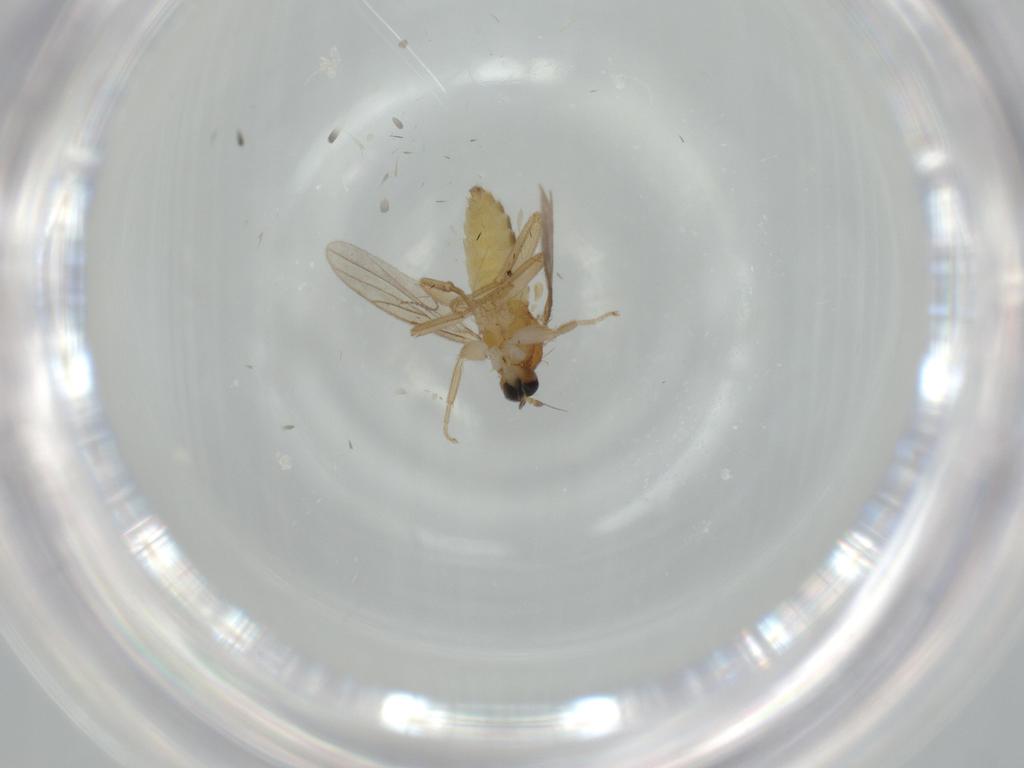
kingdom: Animalia
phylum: Arthropoda
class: Insecta
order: Diptera
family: Hybotidae
